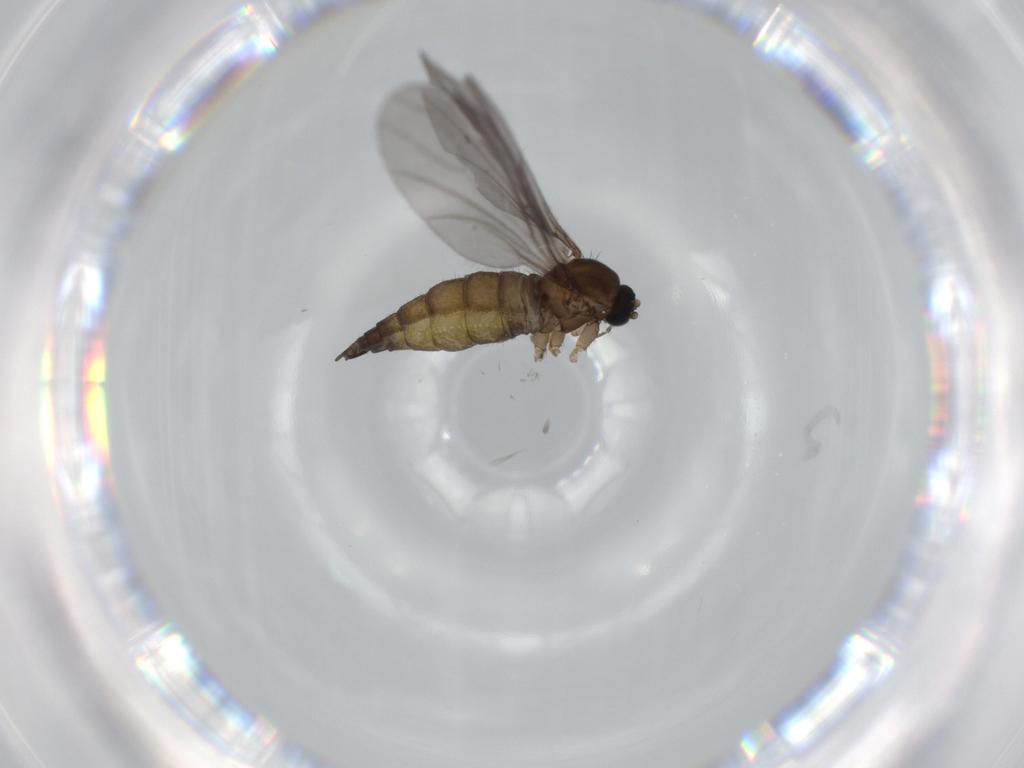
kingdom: Animalia
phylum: Arthropoda
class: Insecta
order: Diptera
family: Sciaridae
